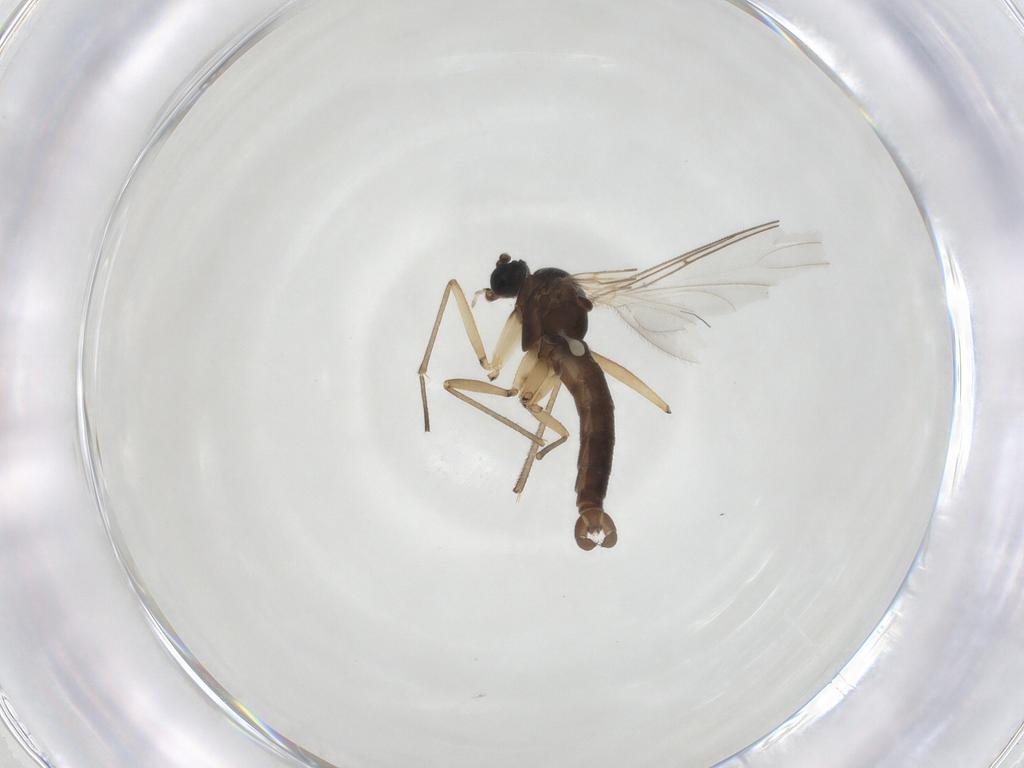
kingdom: Animalia
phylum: Arthropoda
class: Insecta
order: Diptera
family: Sciaridae
